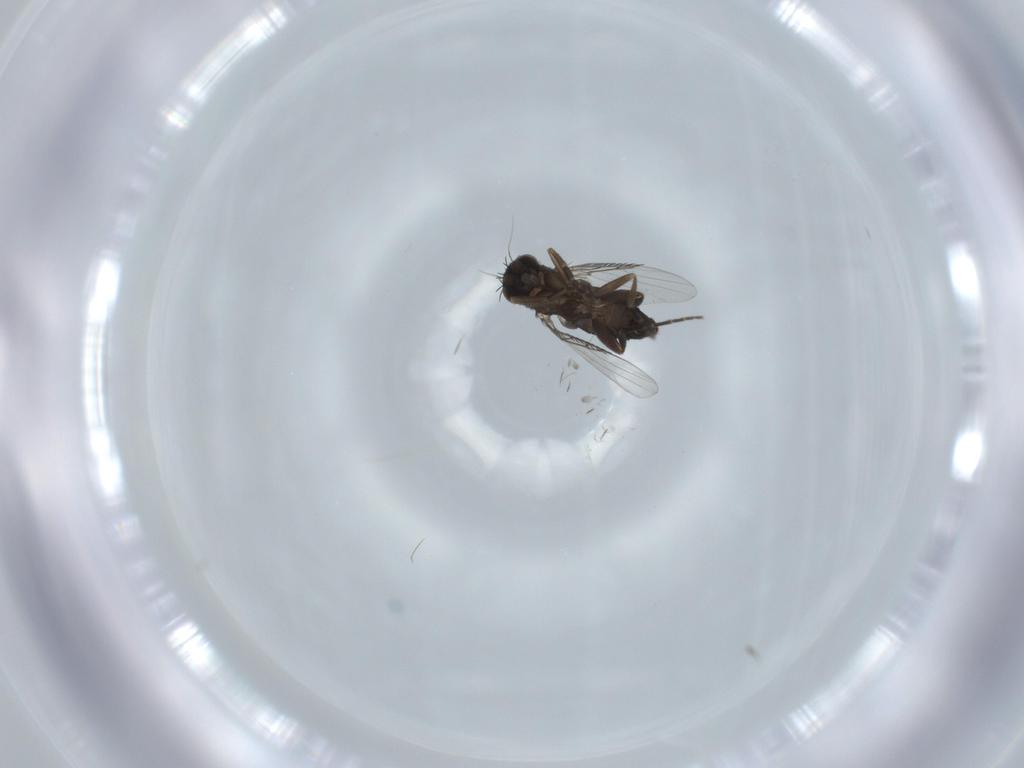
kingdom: Animalia
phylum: Arthropoda
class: Insecta
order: Diptera
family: Phoridae
